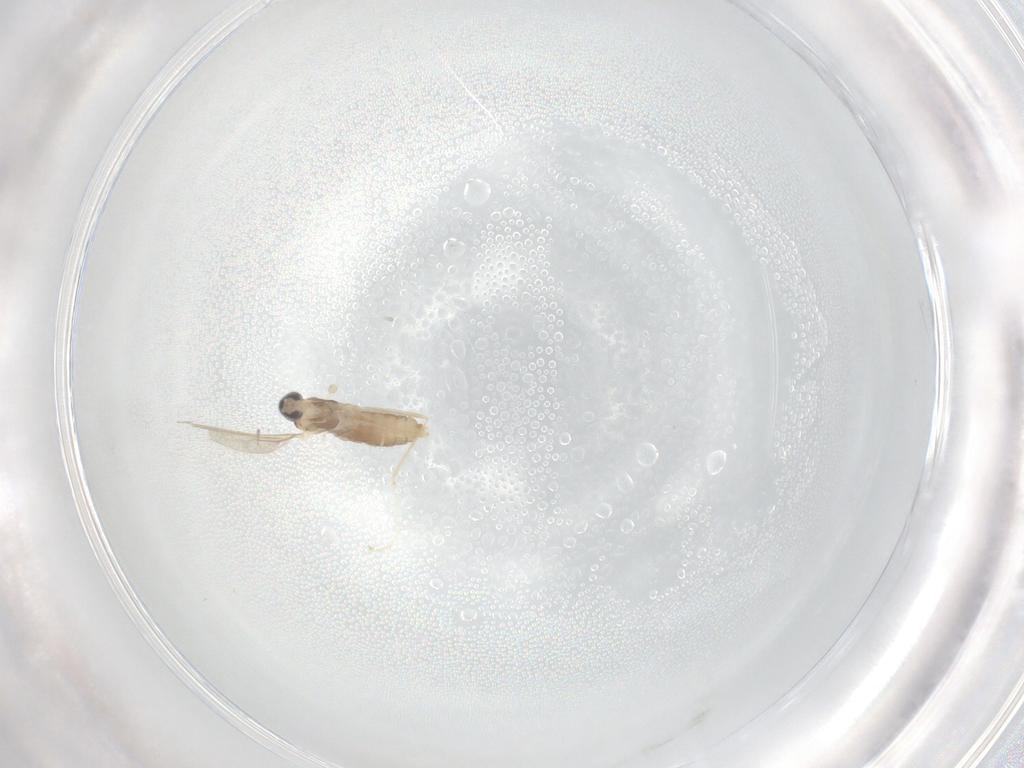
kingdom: Animalia
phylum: Arthropoda
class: Insecta
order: Diptera
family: Cecidomyiidae
